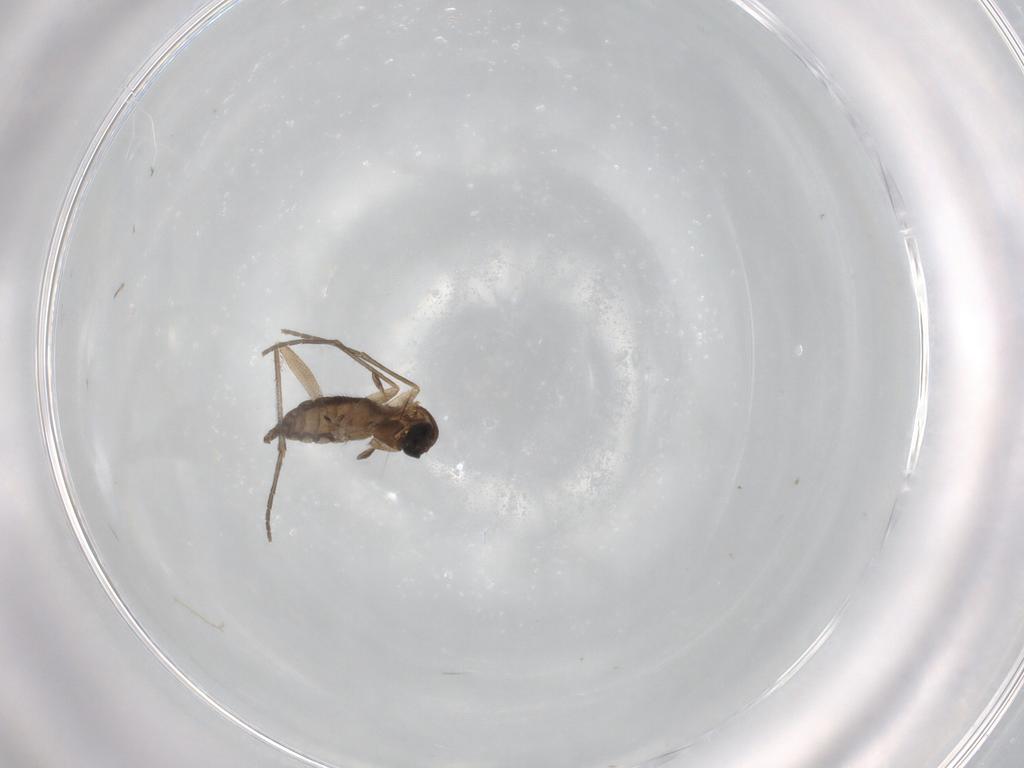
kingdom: Animalia
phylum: Arthropoda
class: Insecta
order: Diptera
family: Sciaridae
